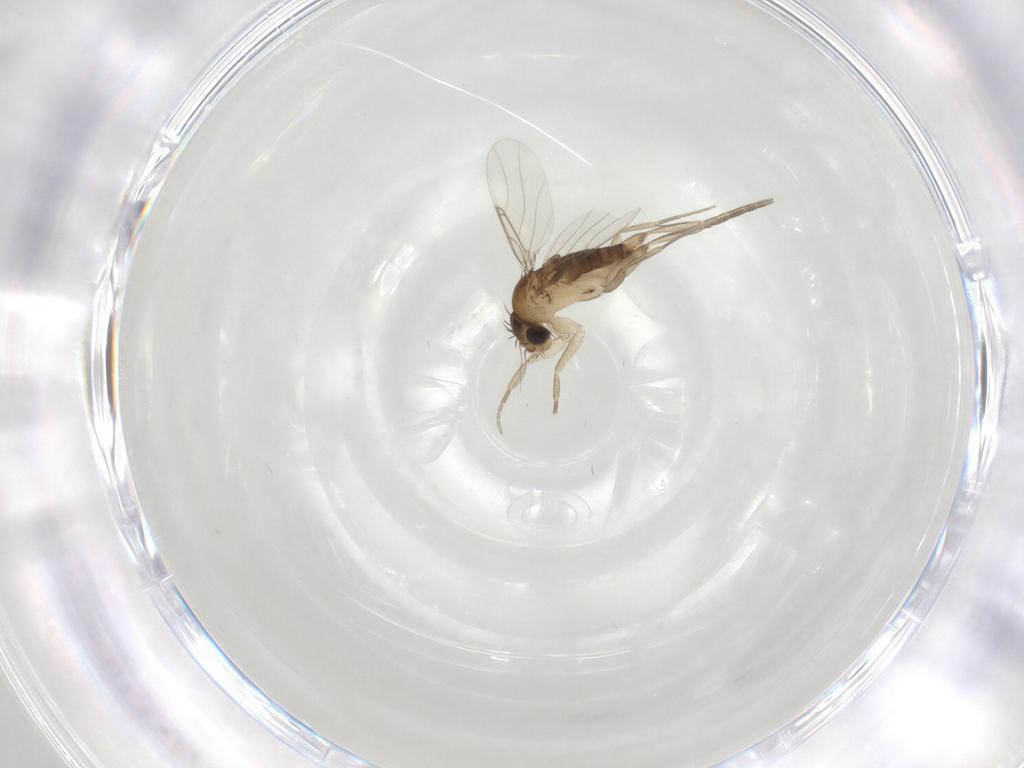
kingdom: Animalia
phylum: Arthropoda
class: Insecta
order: Diptera
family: Phoridae
